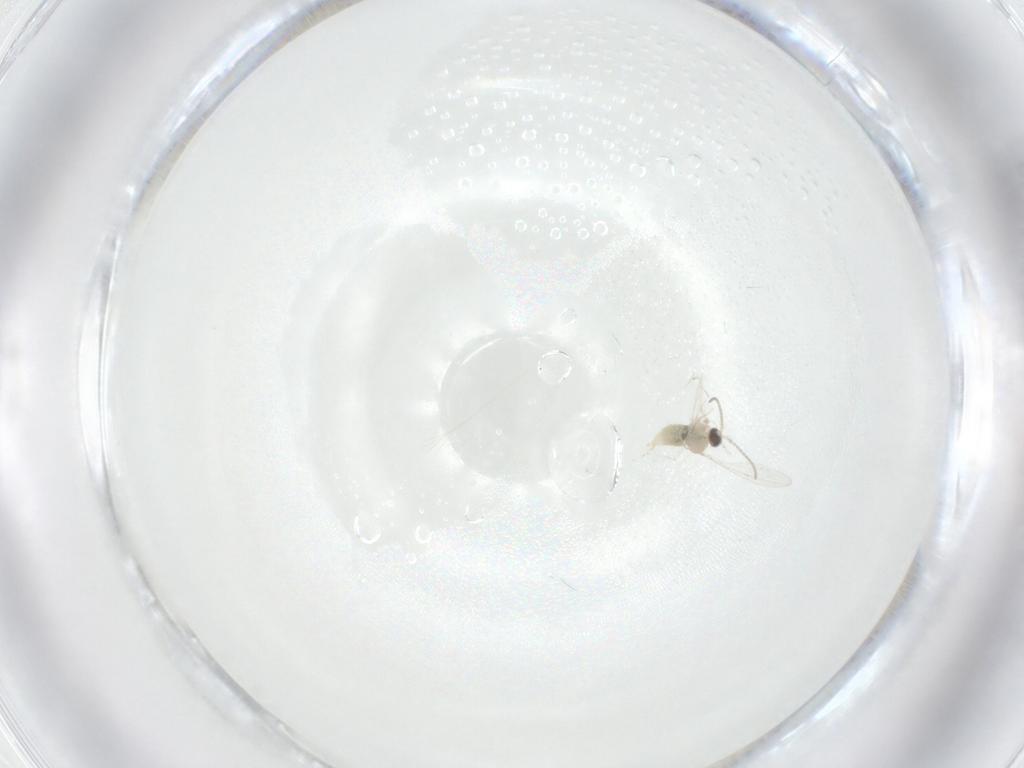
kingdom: Animalia
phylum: Arthropoda
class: Insecta
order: Diptera
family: Cecidomyiidae
